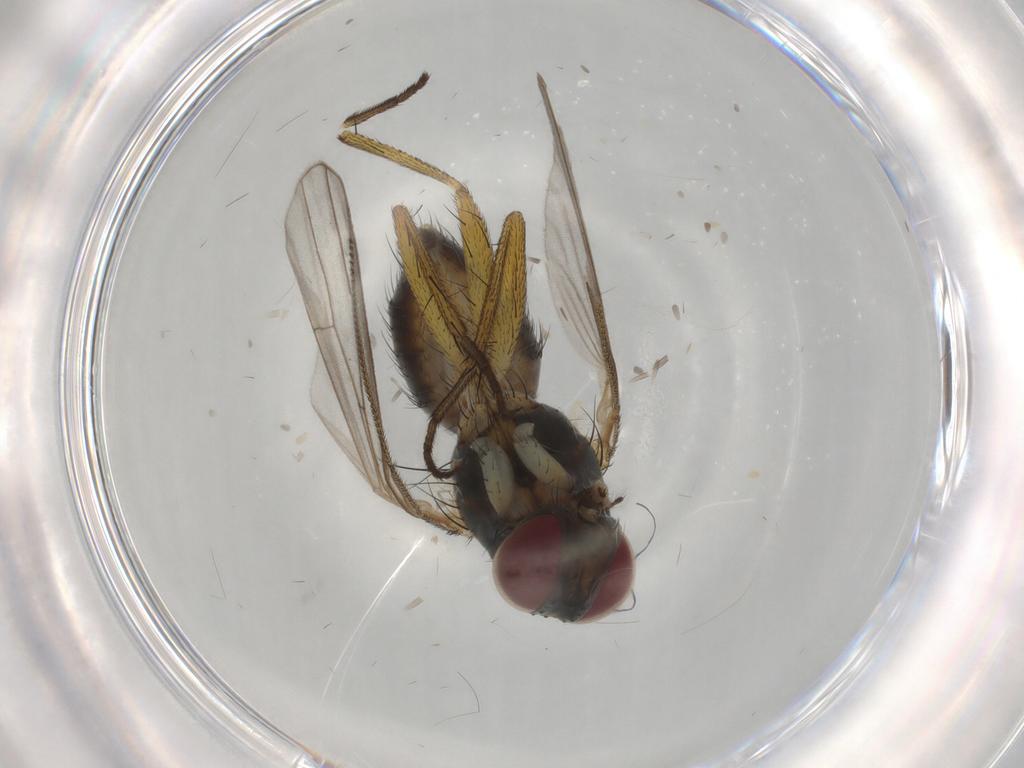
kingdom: Animalia
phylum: Arthropoda
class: Insecta
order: Diptera
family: Muscidae
